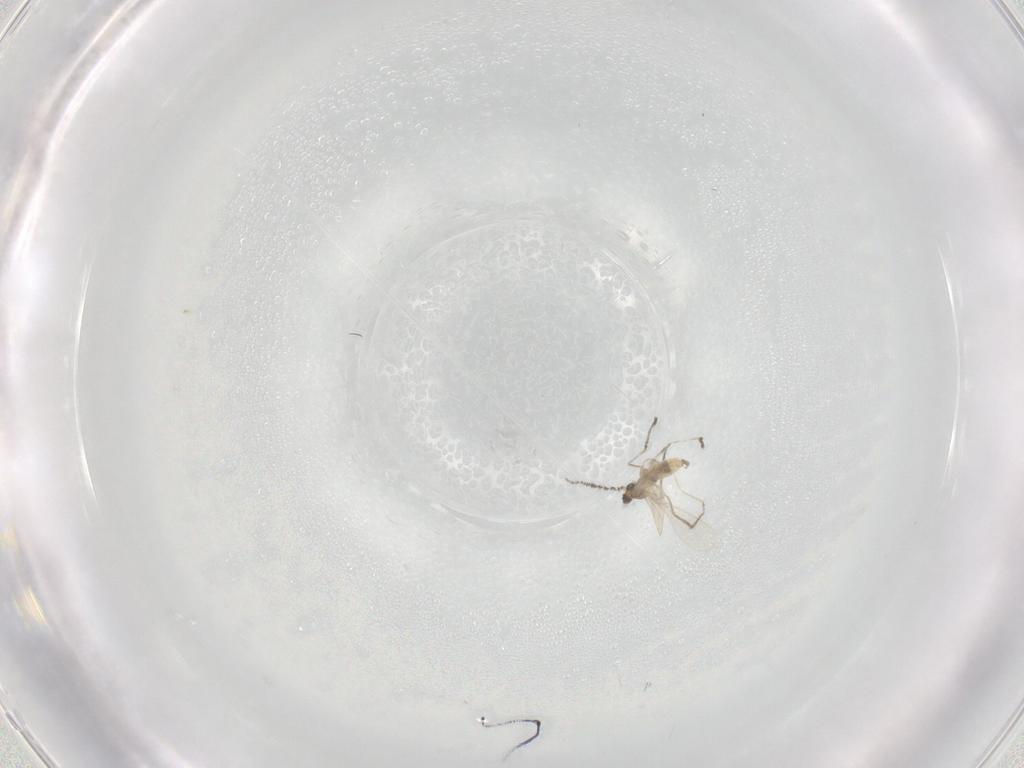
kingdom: Animalia
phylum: Arthropoda
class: Insecta
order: Diptera
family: Cecidomyiidae
